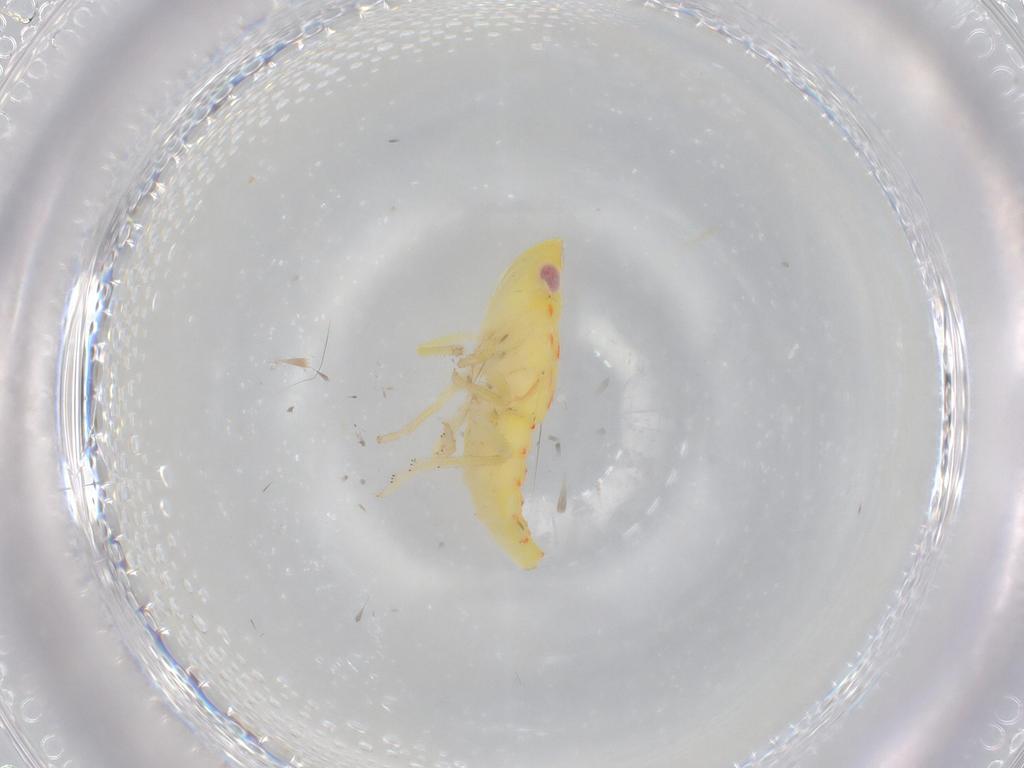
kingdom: Animalia
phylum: Arthropoda
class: Insecta
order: Hemiptera
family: Tropiduchidae
